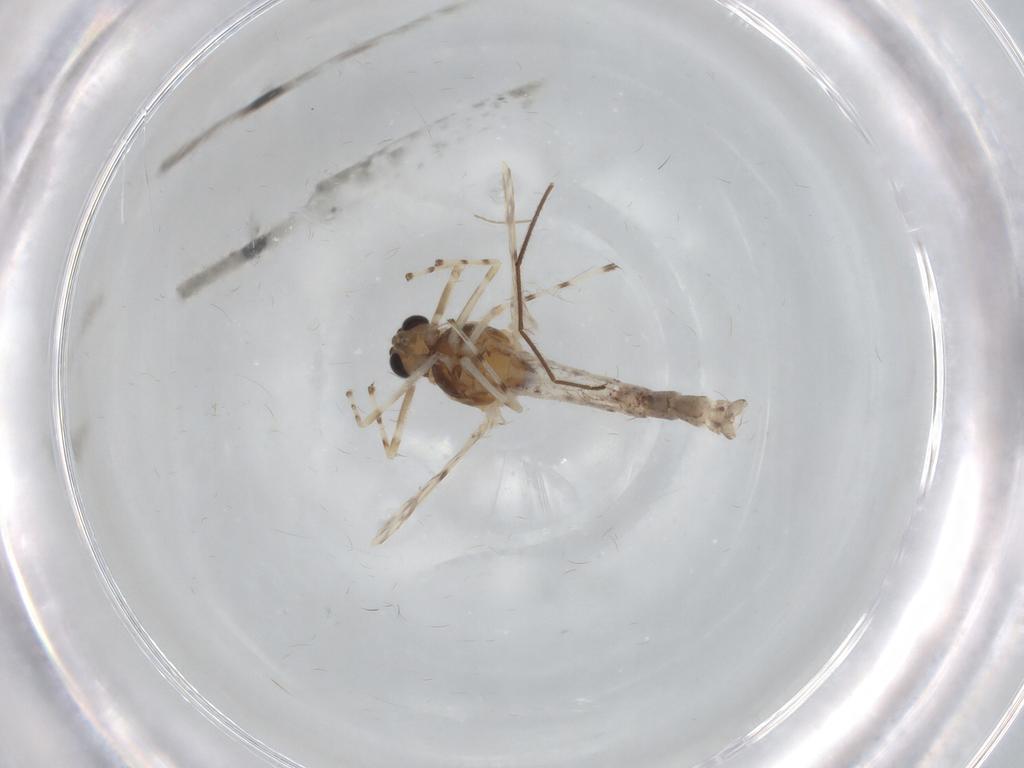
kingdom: Animalia
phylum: Arthropoda
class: Insecta
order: Diptera
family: Chironomidae
